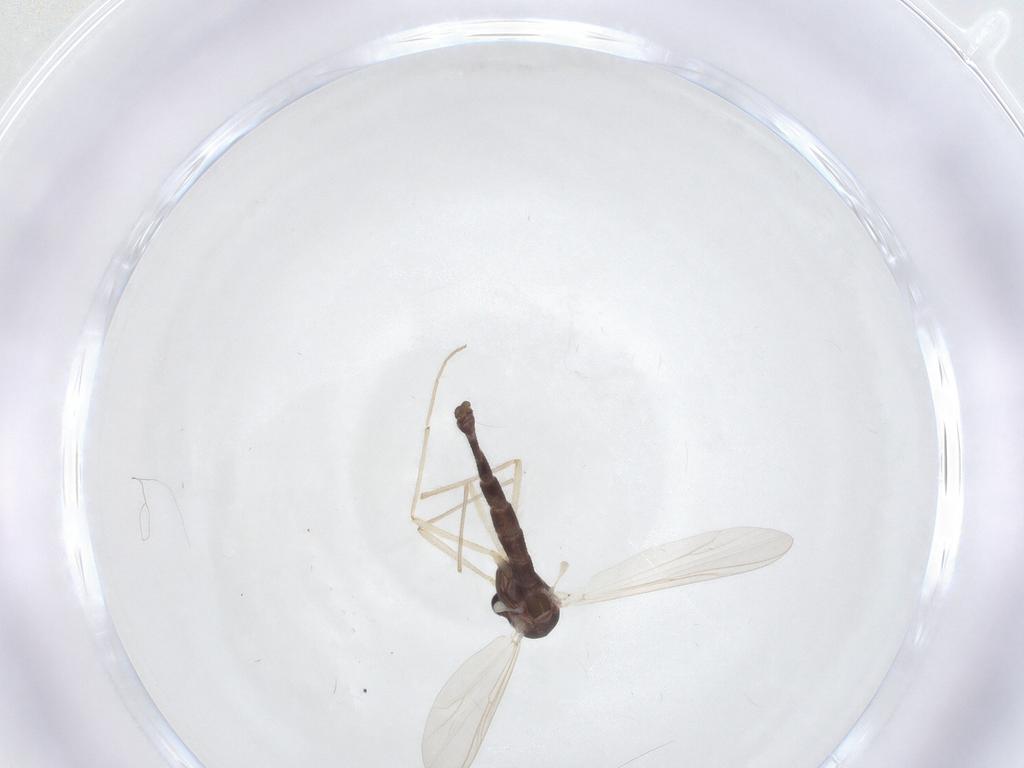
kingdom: Animalia
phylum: Arthropoda
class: Insecta
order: Diptera
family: Chironomidae
